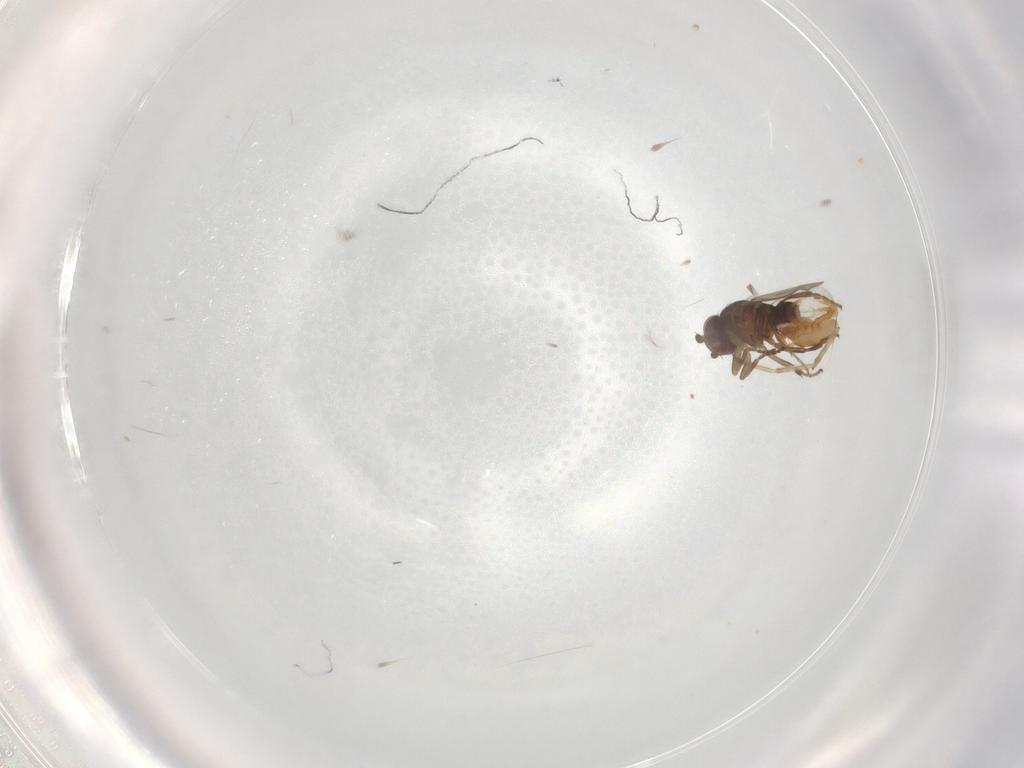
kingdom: Animalia
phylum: Arthropoda
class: Insecta
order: Diptera
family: Sphaeroceridae
